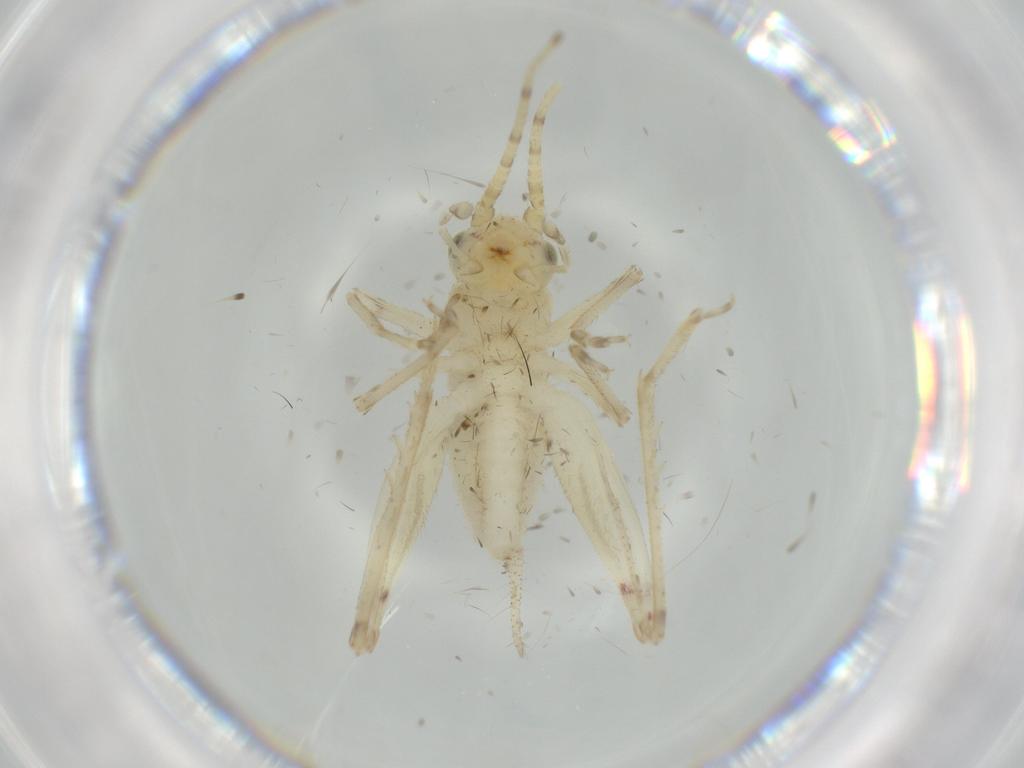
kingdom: Animalia
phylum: Arthropoda
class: Insecta
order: Orthoptera
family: Trigonidiidae
